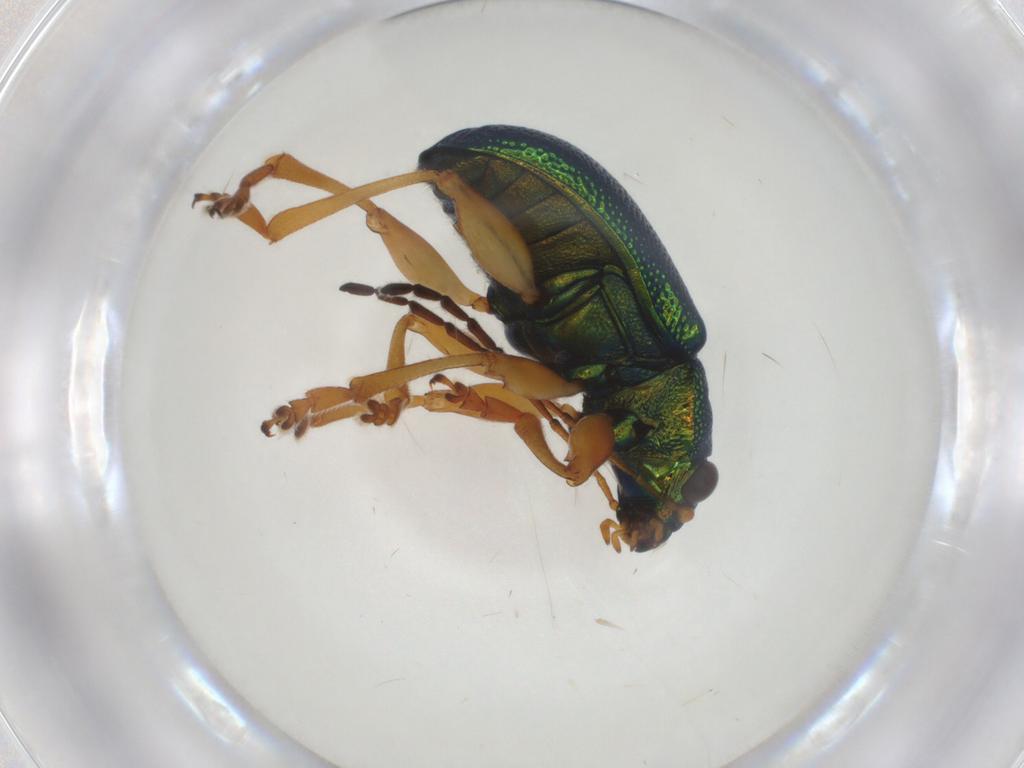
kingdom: Animalia
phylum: Arthropoda
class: Insecta
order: Coleoptera
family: Chrysomelidae
